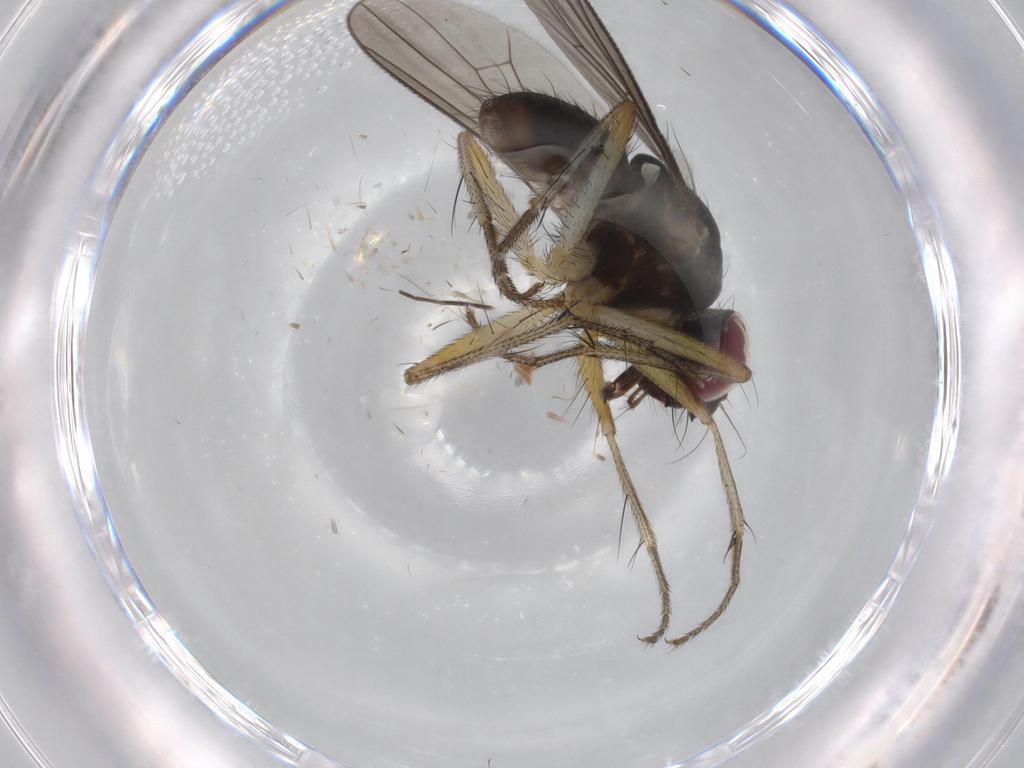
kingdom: Animalia
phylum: Arthropoda
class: Insecta
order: Diptera
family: Anthomyiidae
